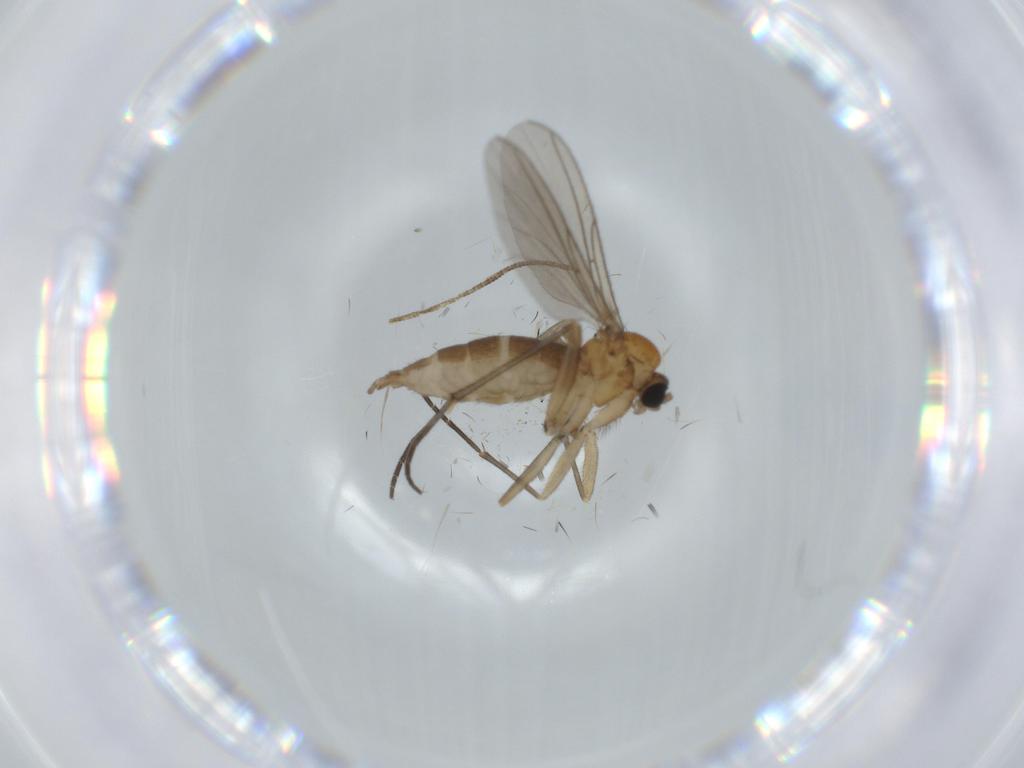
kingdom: Animalia
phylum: Arthropoda
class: Insecta
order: Diptera
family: Sciaridae
